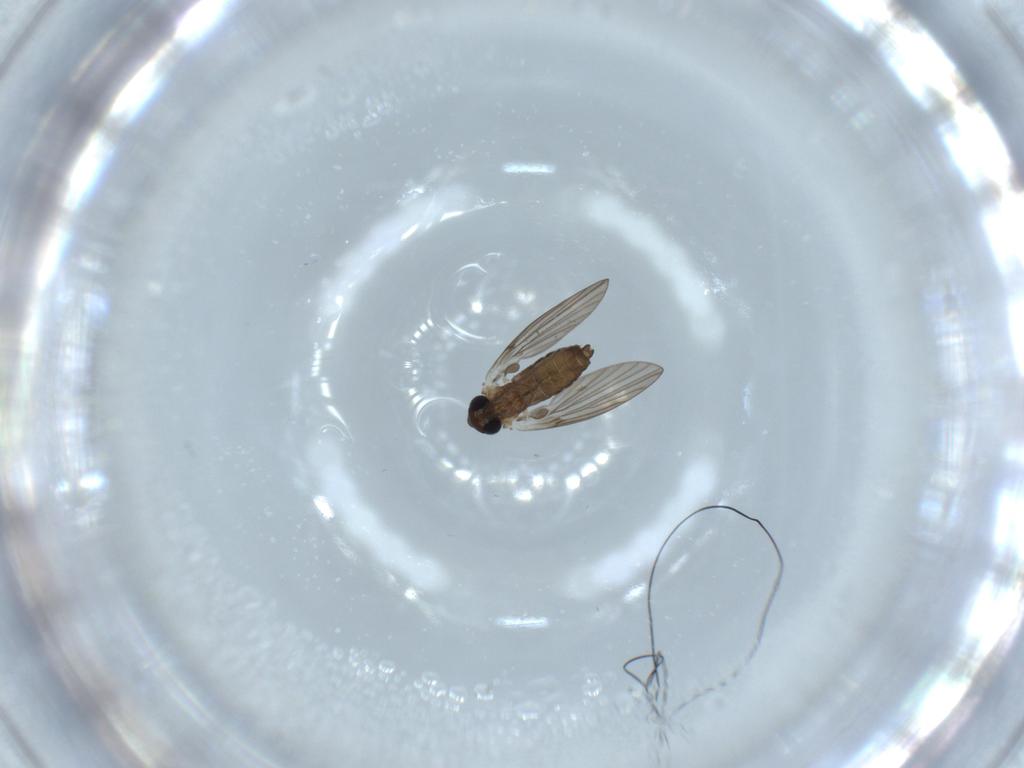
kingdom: Animalia
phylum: Arthropoda
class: Insecta
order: Diptera
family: Psychodidae
